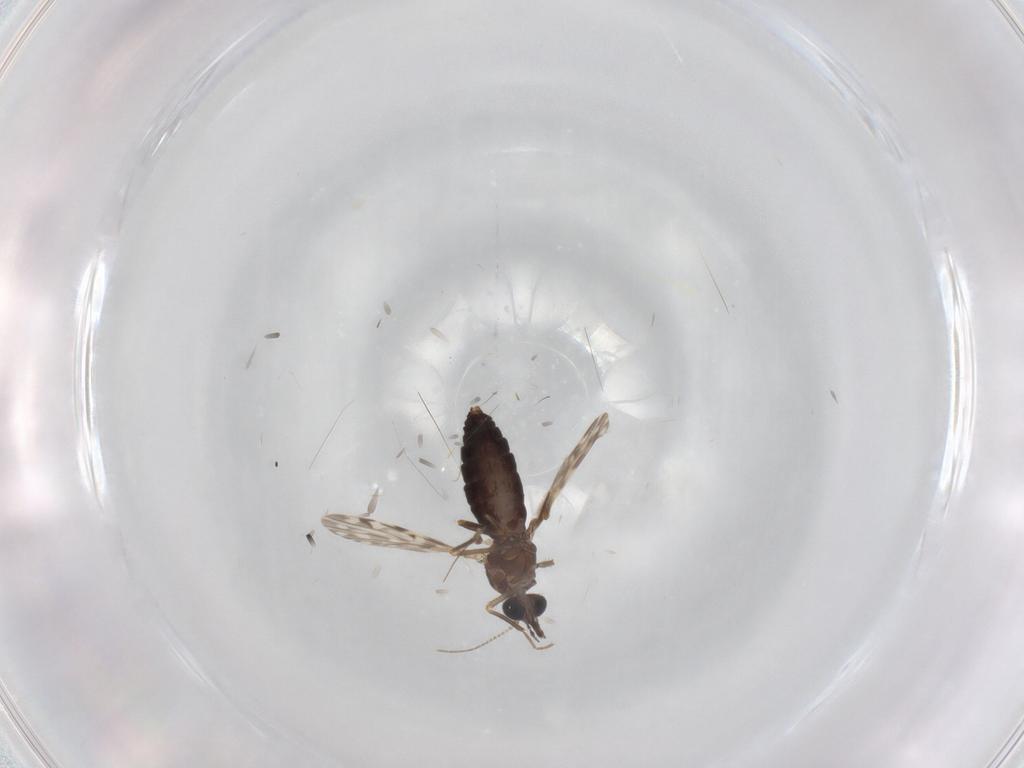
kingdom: Animalia
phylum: Arthropoda
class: Insecta
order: Diptera
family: Ceratopogonidae
